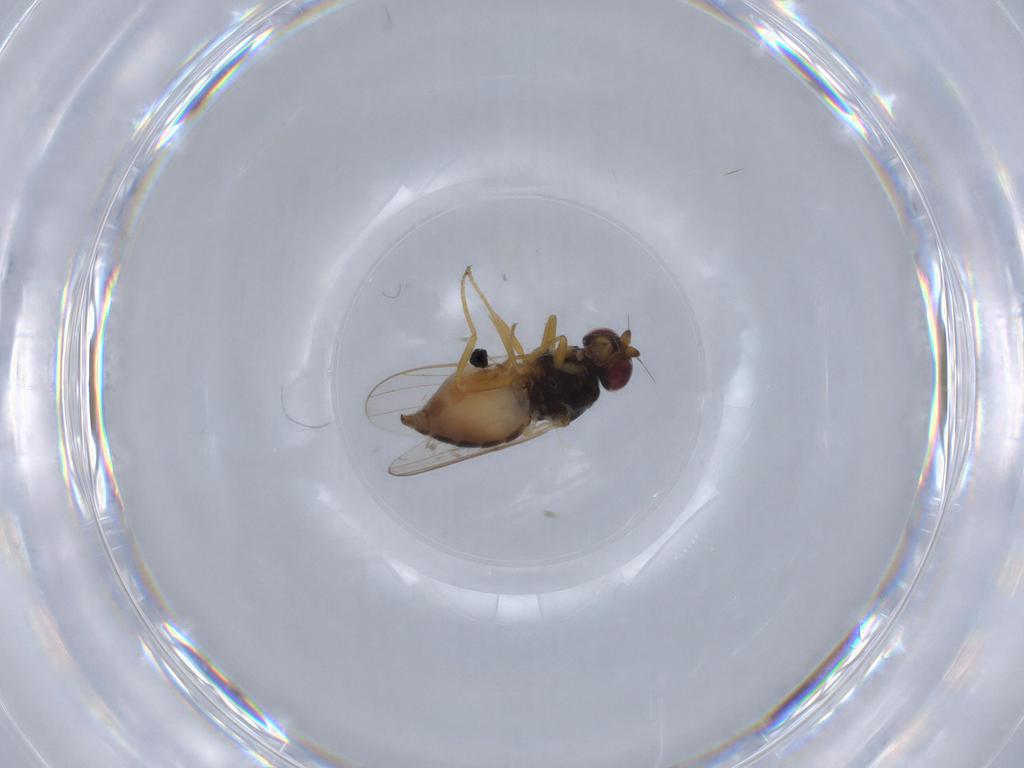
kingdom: Animalia
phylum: Arthropoda
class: Insecta
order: Diptera
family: Chloropidae
